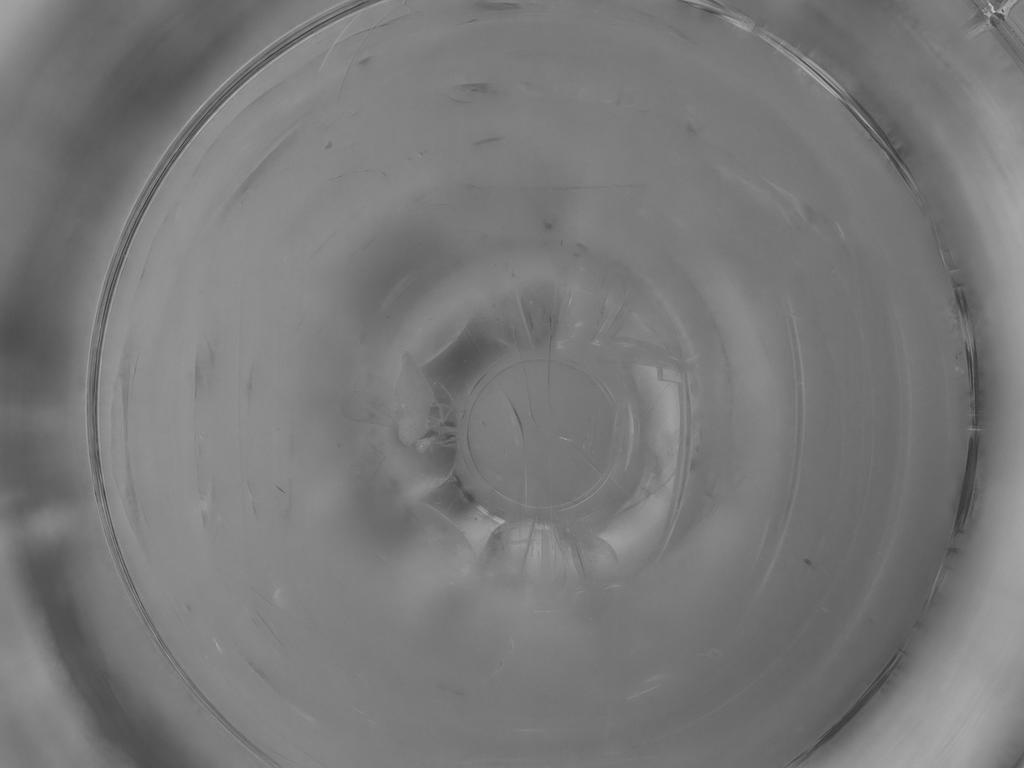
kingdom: Animalia
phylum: Arthropoda
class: Insecta
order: Diptera
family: Ceratopogonidae
